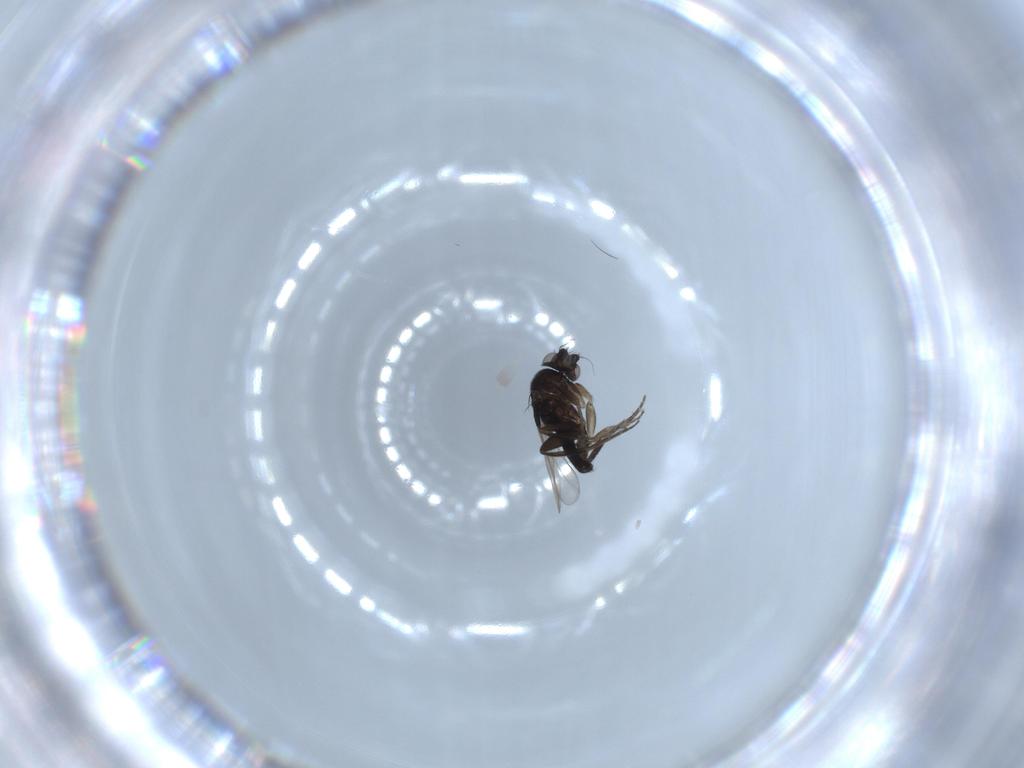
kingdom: Animalia
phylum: Arthropoda
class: Insecta
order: Diptera
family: Phoridae
